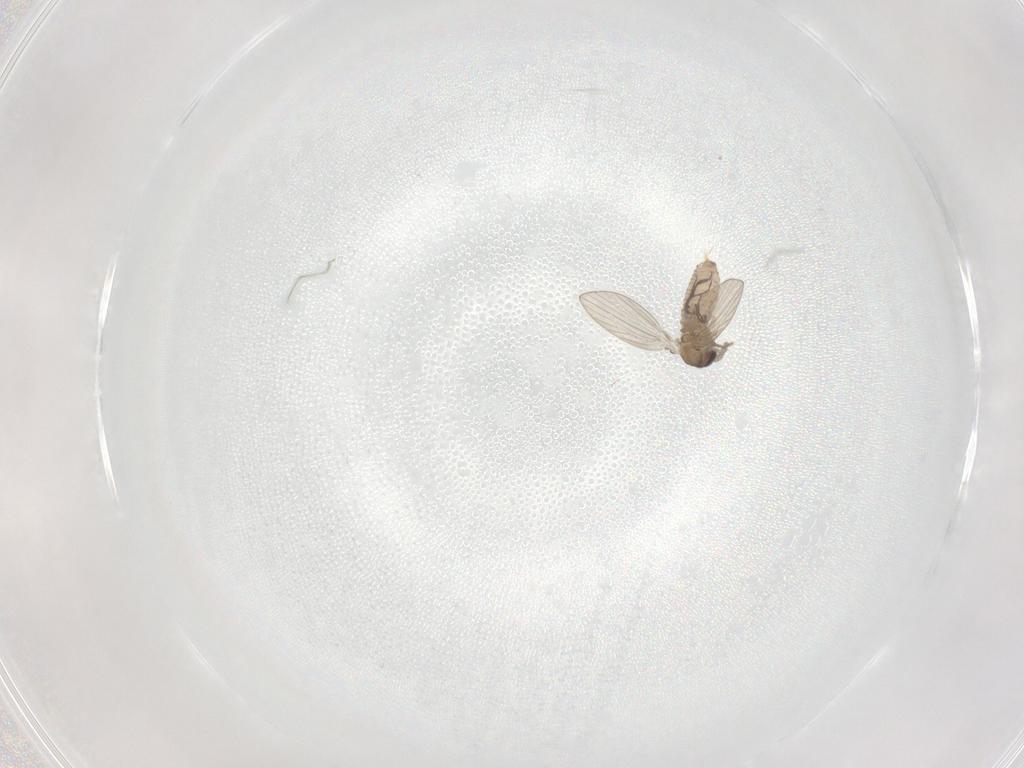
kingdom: Animalia
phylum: Arthropoda
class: Insecta
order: Diptera
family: Sciaridae
